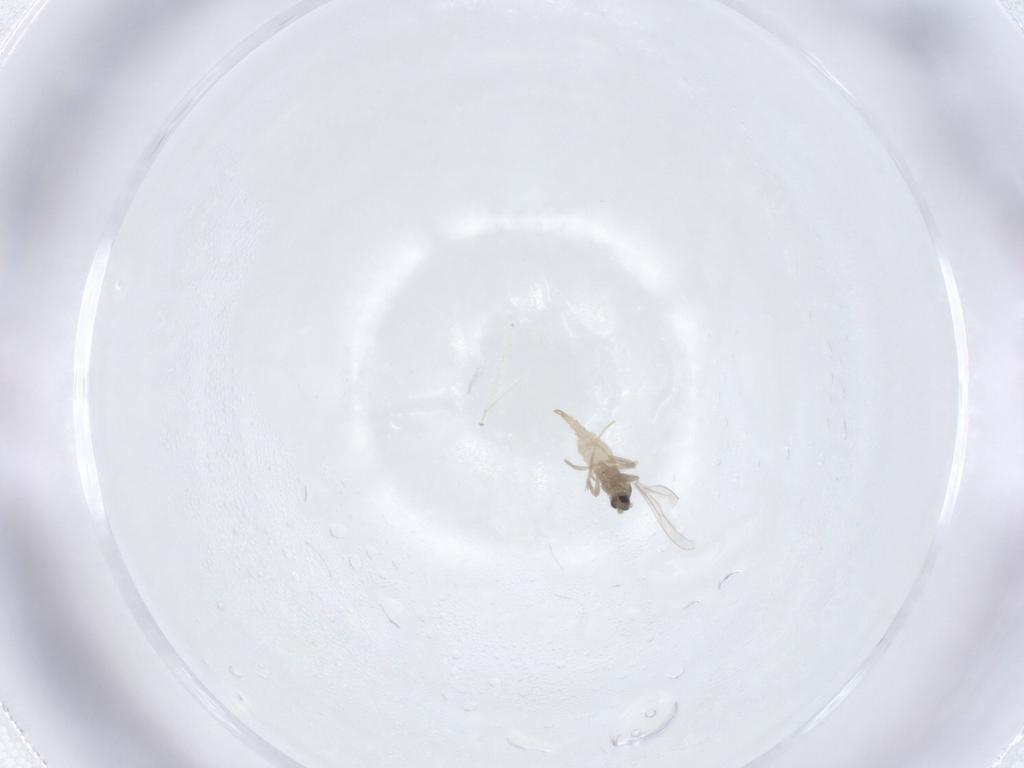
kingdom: Animalia
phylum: Arthropoda
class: Insecta
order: Diptera
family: Cecidomyiidae
